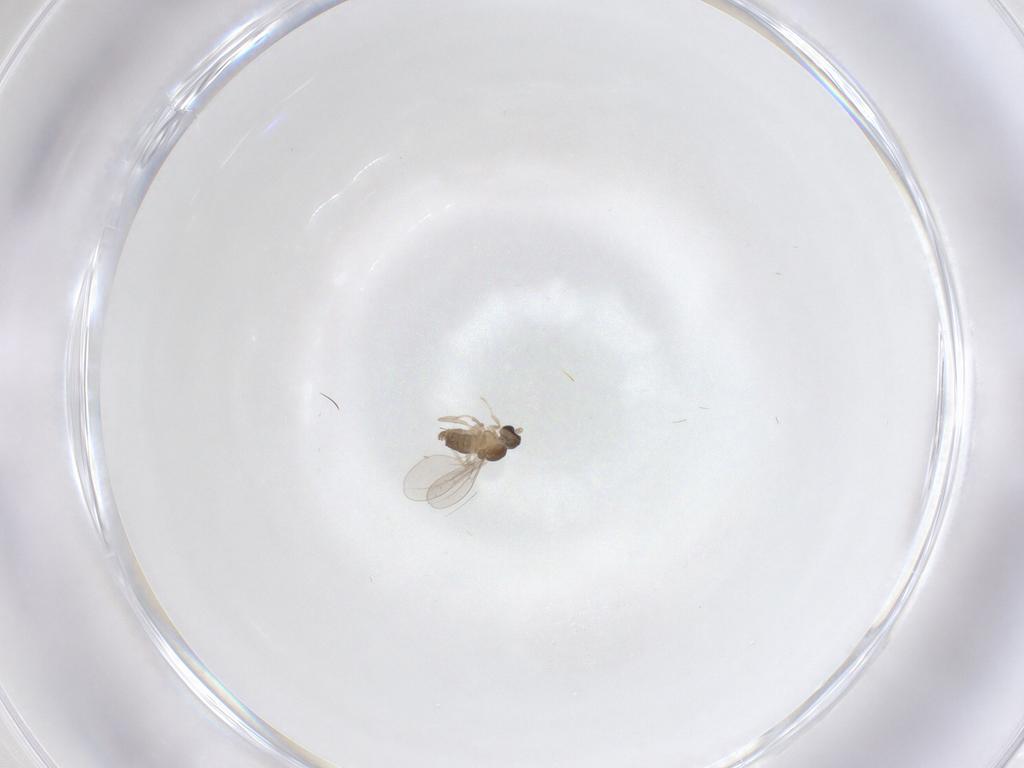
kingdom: Animalia
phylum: Arthropoda
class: Insecta
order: Diptera
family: Cecidomyiidae
